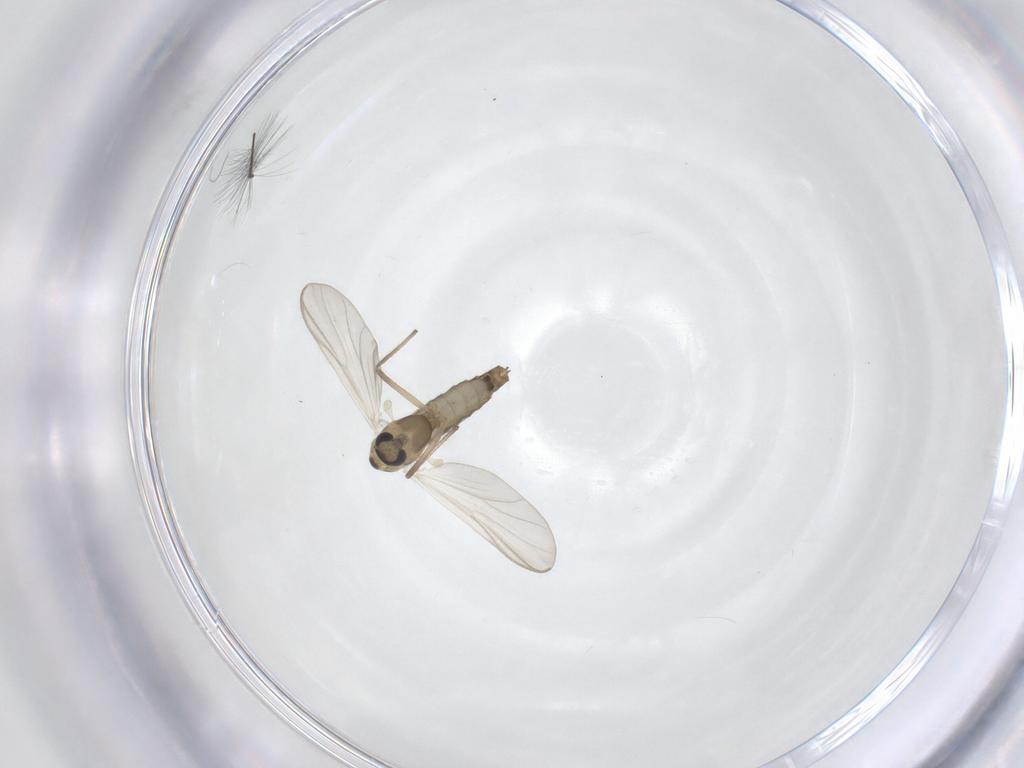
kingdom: Animalia
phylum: Arthropoda
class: Insecta
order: Diptera
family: Chironomidae
